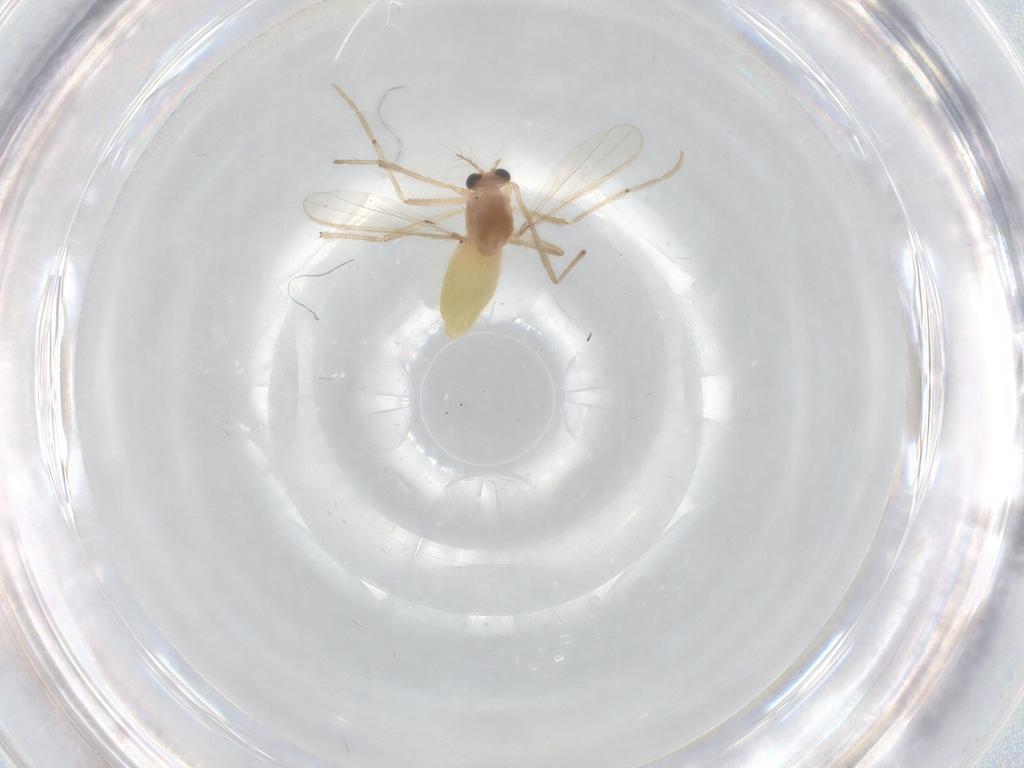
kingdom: Animalia
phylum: Arthropoda
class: Insecta
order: Diptera
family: Chironomidae
